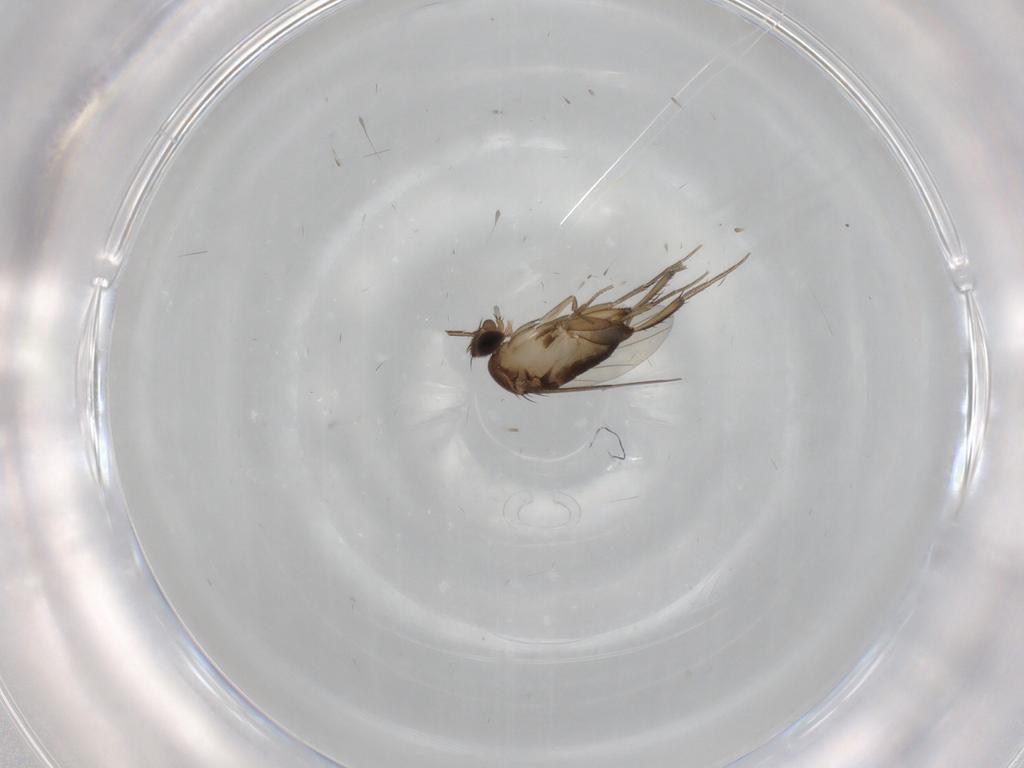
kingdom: Animalia
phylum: Arthropoda
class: Insecta
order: Diptera
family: Phoridae
